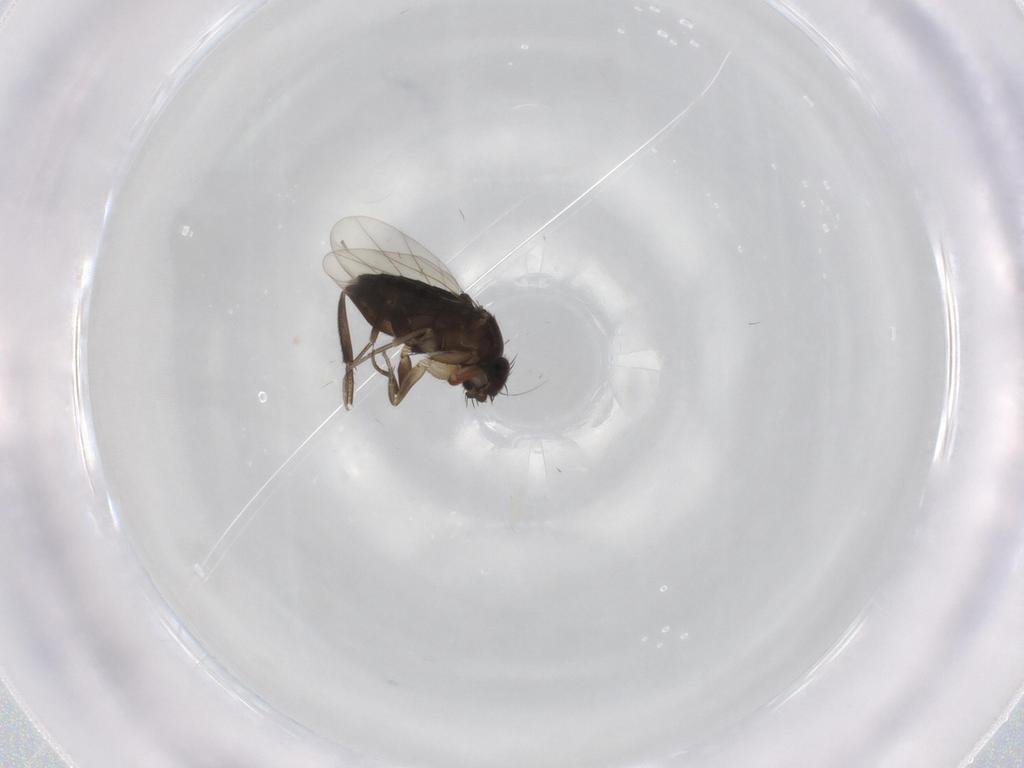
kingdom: Animalia
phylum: Arthropoda
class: Insecta
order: Diptera
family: Phoridae
